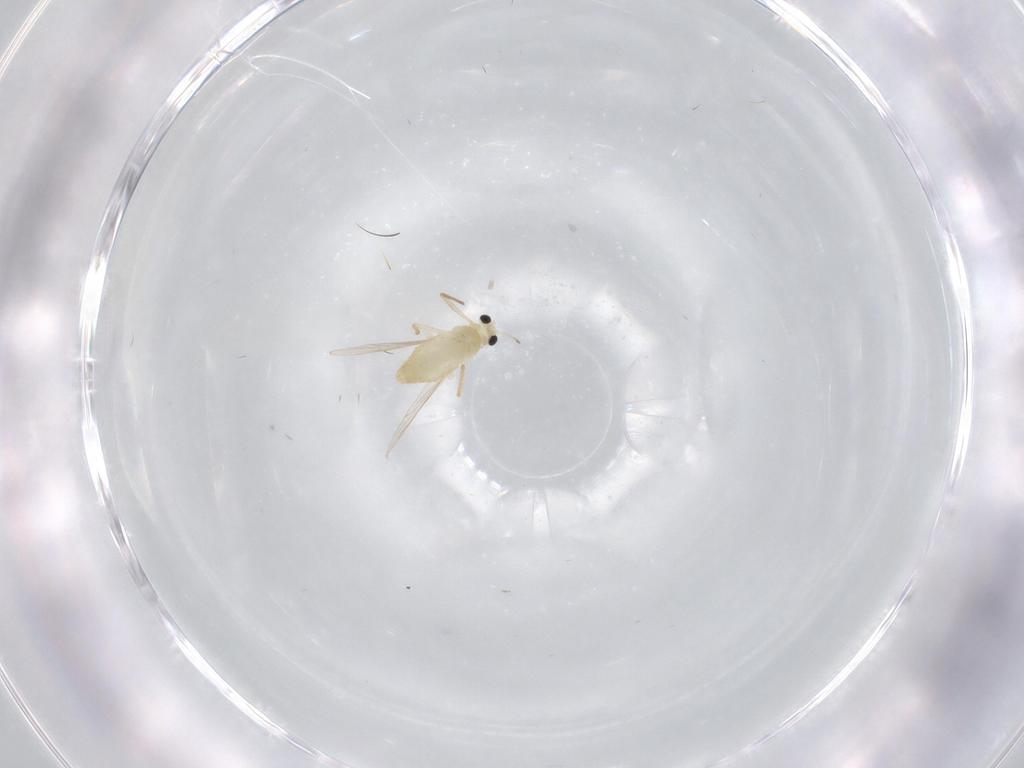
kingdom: Animalia
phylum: Arthropoda
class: Insecta
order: Diptera
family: Chironomidae
